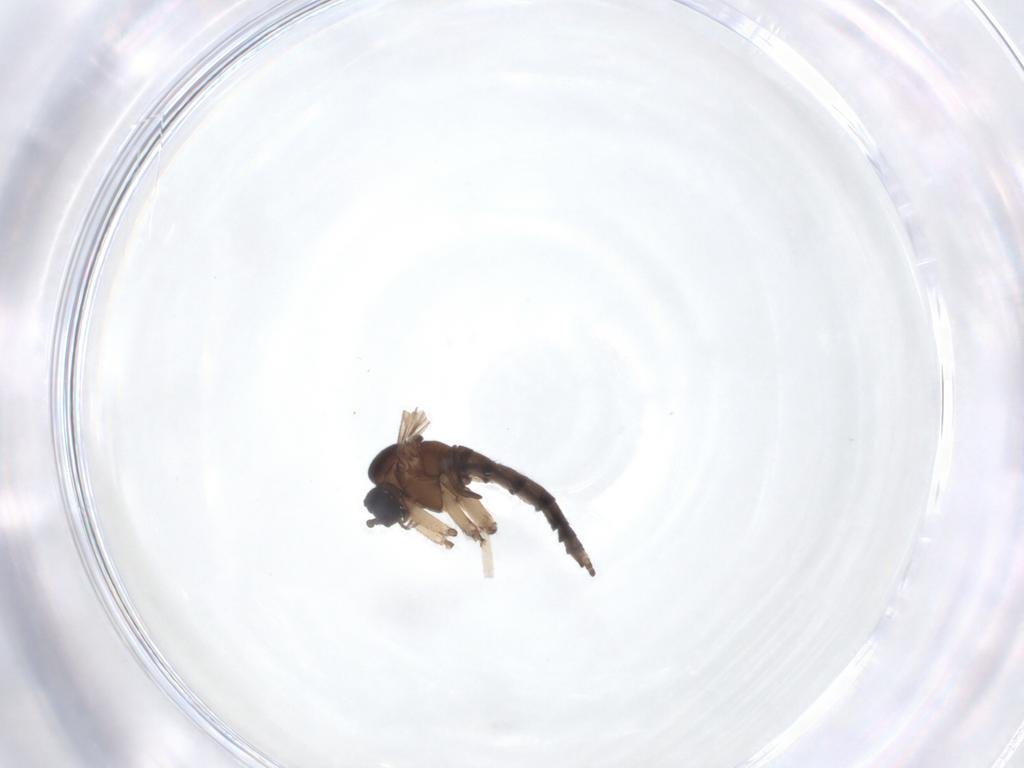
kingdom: Animalia
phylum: Arthropoda
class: Insecta
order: Diptera
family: Sciaridae
